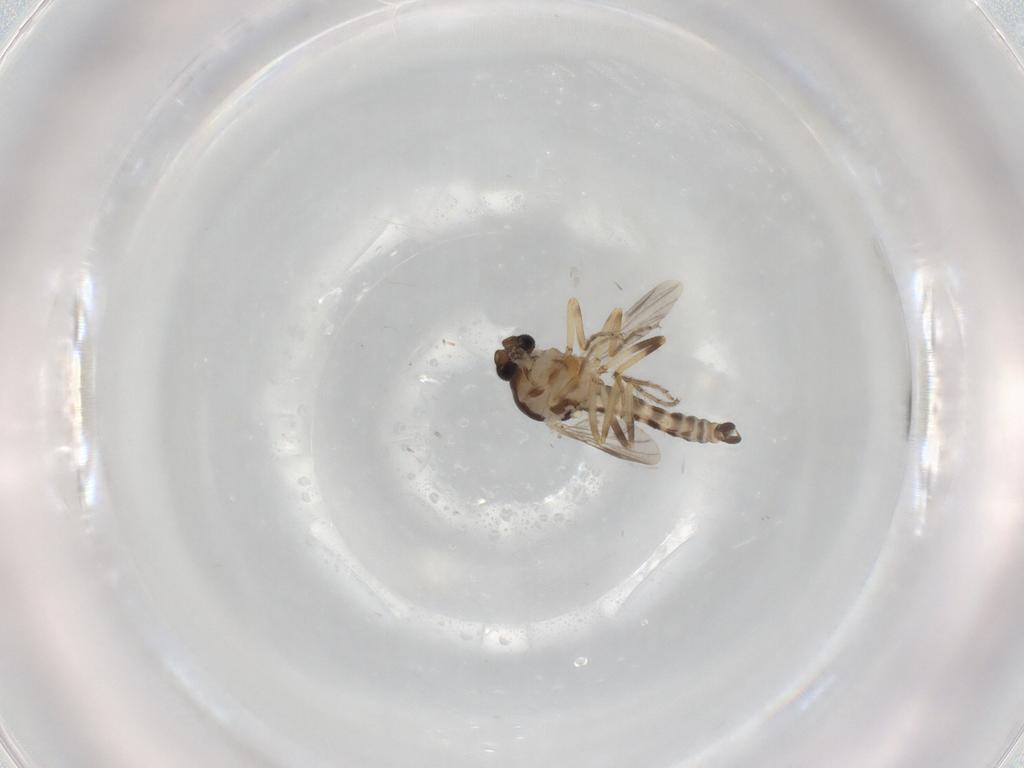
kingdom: Animalia
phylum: Arthropoda
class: Insecta
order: Diptera
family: Ceratopogonidae
